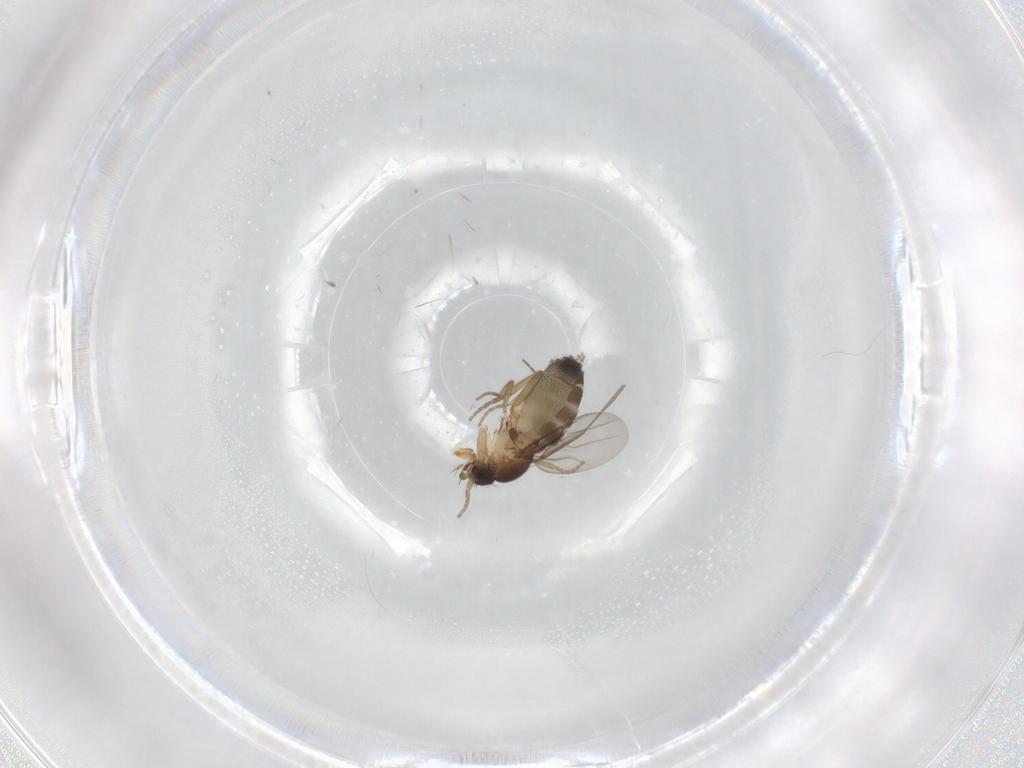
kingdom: Animalia
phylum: Arthropoda
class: Insecta
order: Diptera
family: Phoridae
